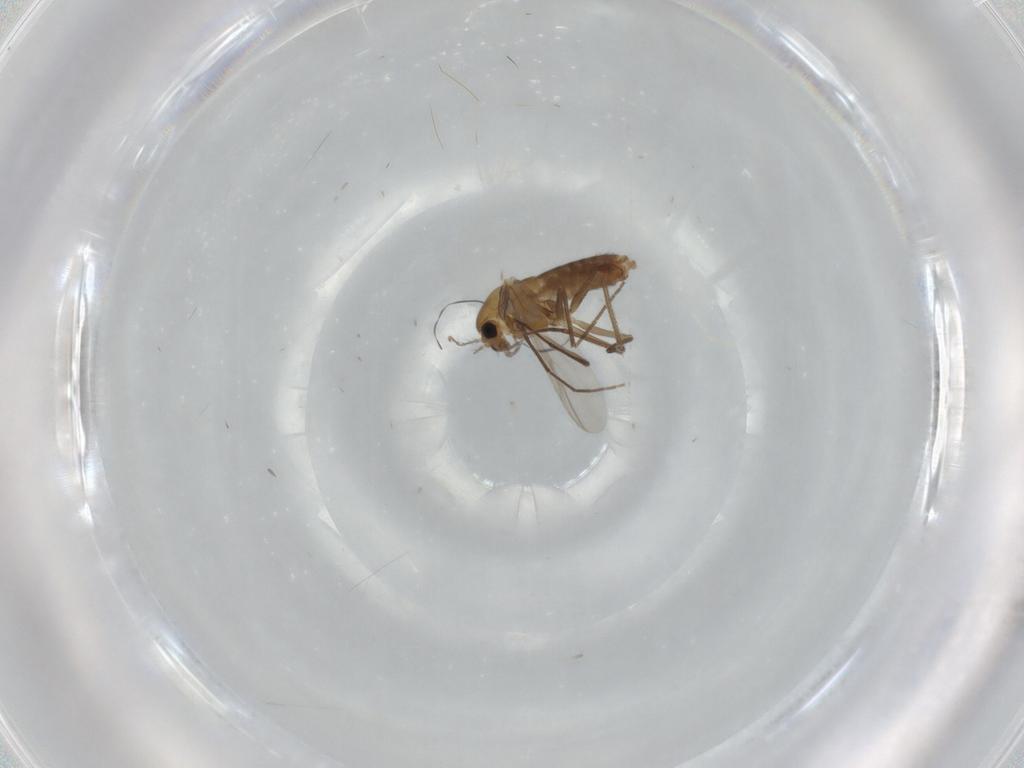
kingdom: Animalia
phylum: Arthropoda
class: Insecta
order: Diptera
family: Chironomidae
